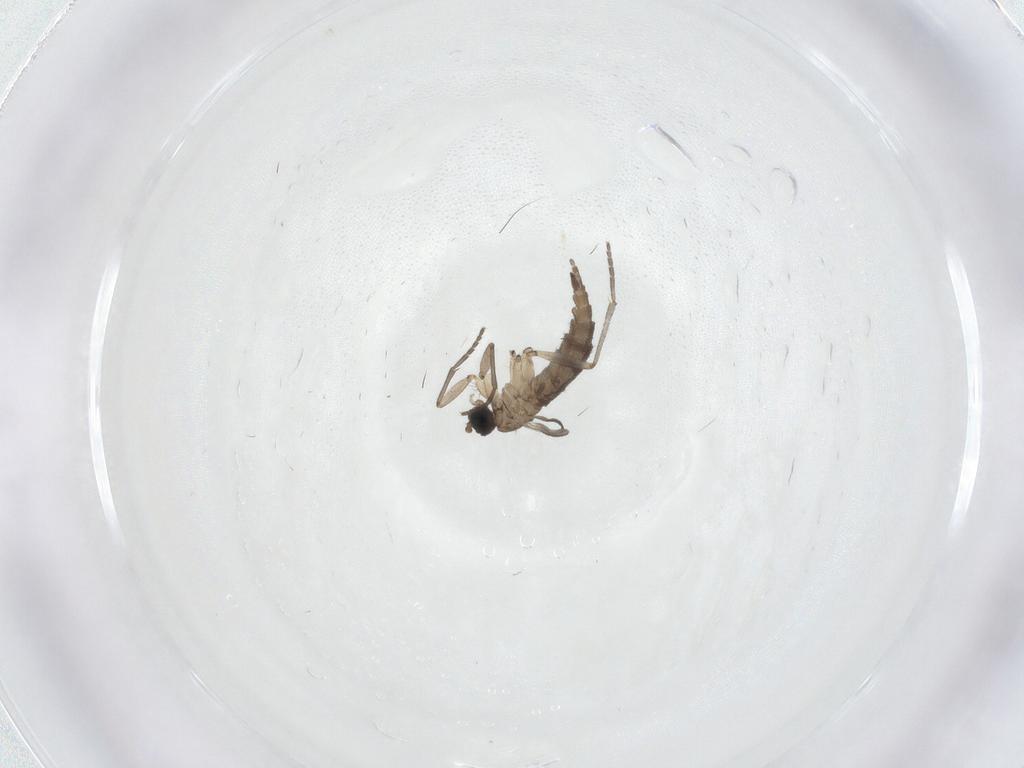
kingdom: Animalia
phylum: Arthropoda
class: Insecta
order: Diptera
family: Sciaridae
